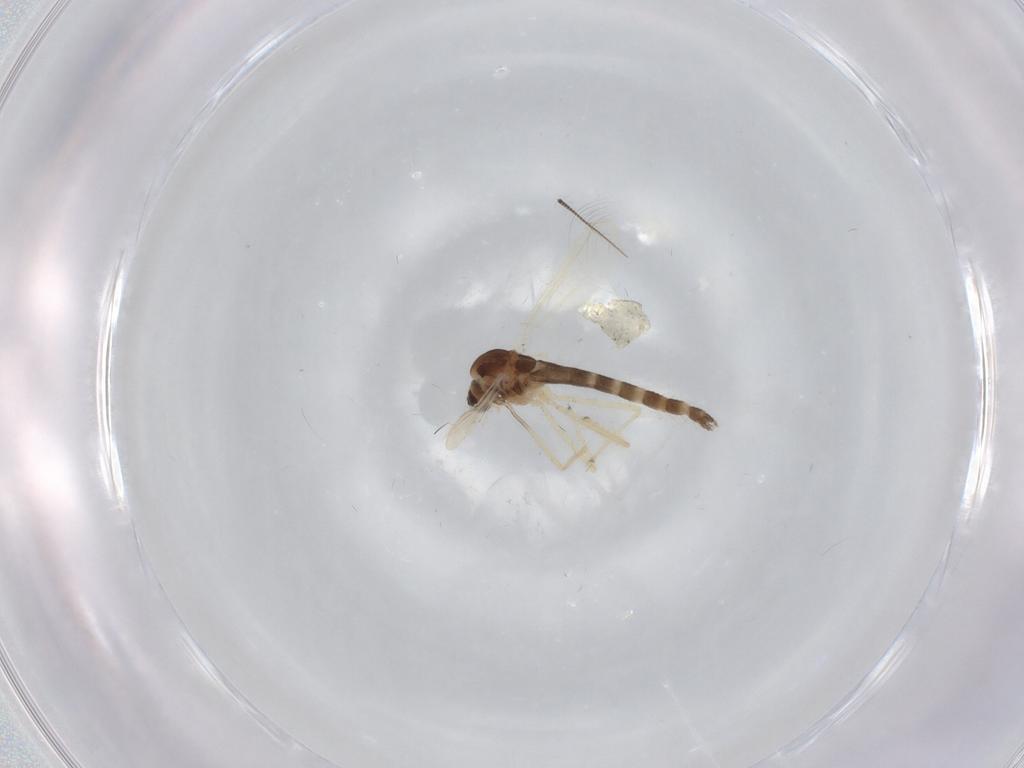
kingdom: Animalia
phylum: Arthropoda
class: Insecta
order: Diptera
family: Chironomidae
